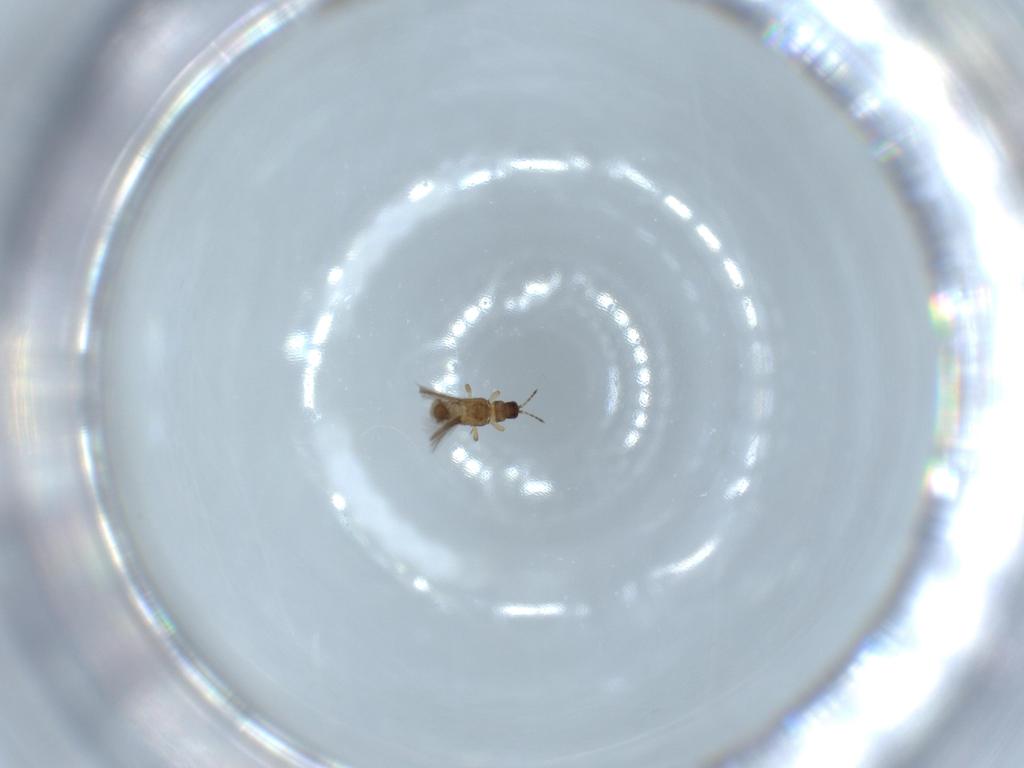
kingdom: Animalia
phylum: Arthropoda
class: Insecta
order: Thysanoptera
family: Thripidae
